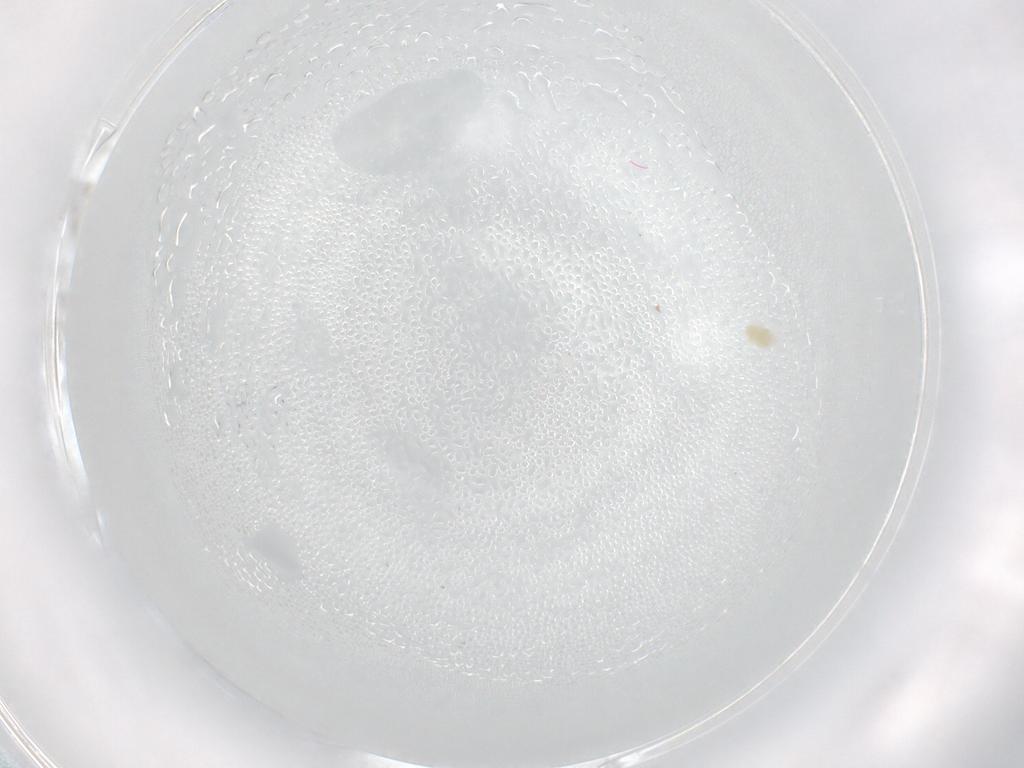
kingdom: Animalia
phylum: Arthropoda
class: Arachnida
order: Trombidiformes
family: Eupodidae
